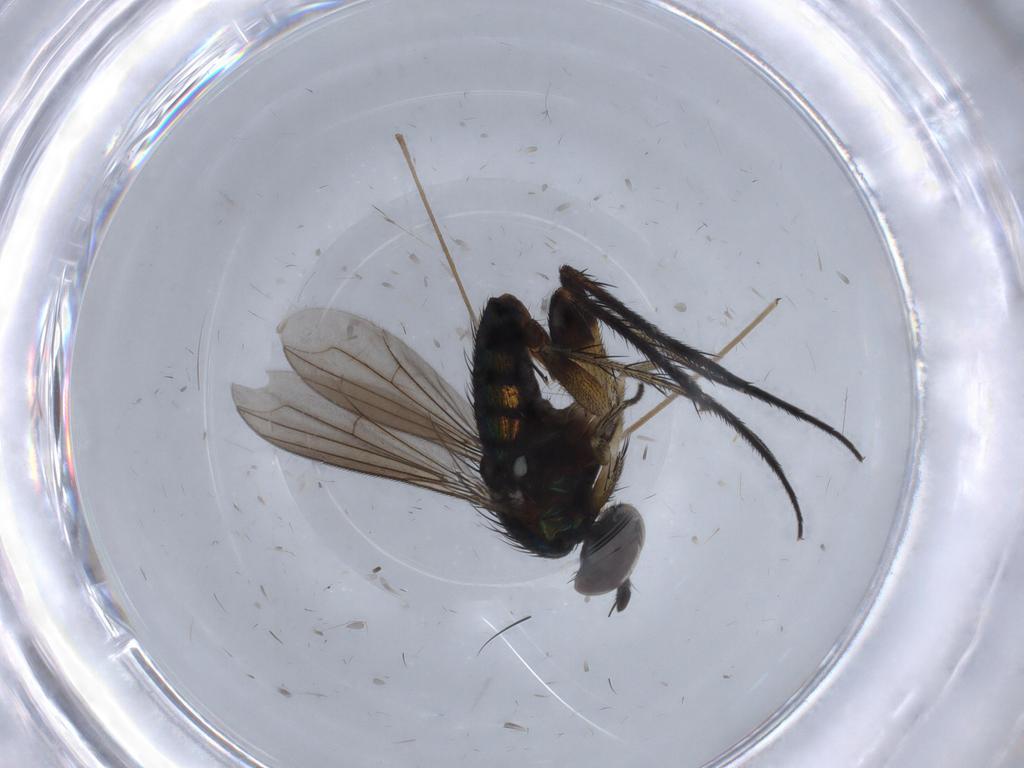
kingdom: Animalia
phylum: Arthropoda
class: Insecta
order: Diptera
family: Limoniidae
